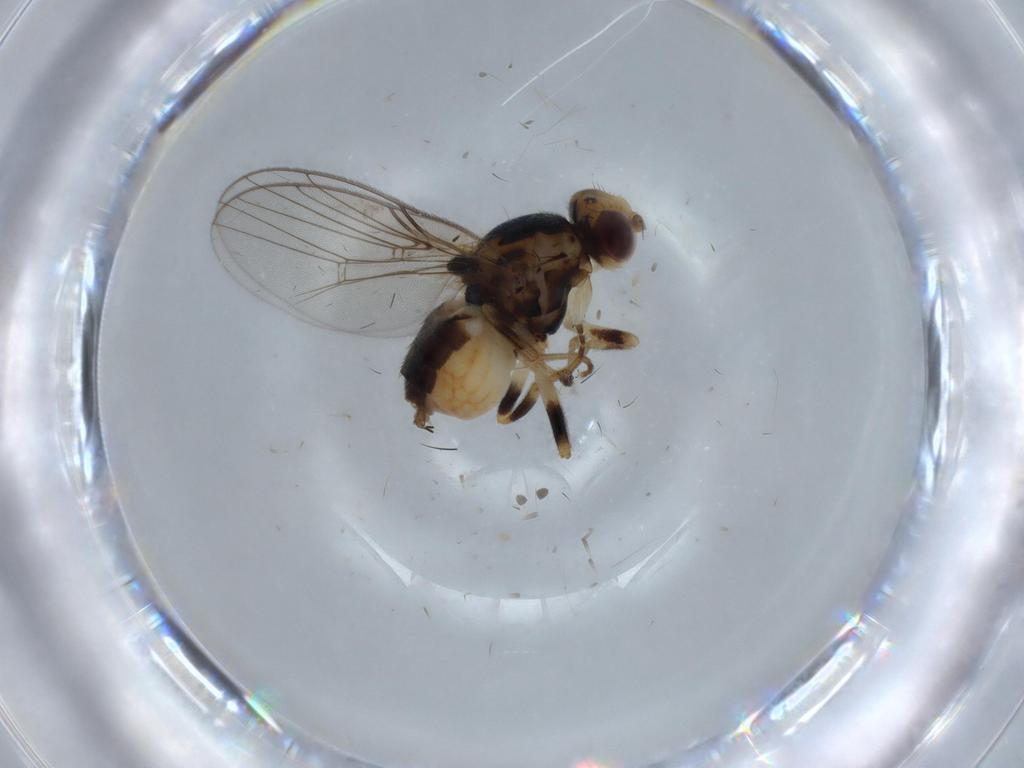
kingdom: Animalia
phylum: Arthropoda
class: Insecta
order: Diptera
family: Chloropidae
